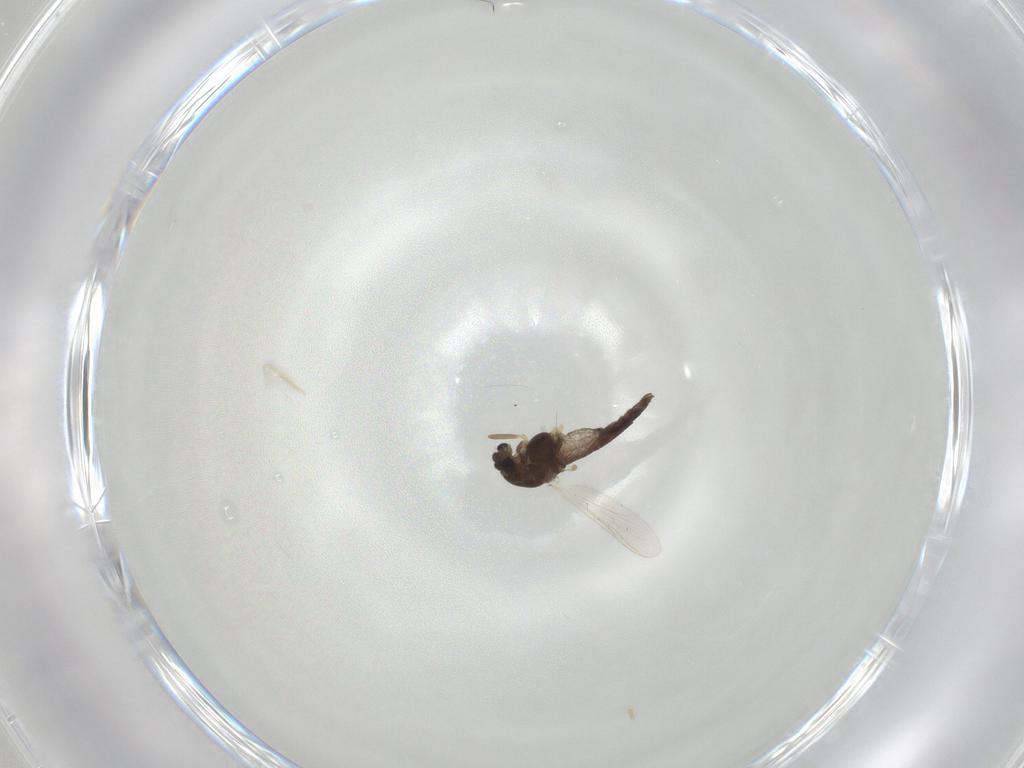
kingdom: Animalia
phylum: Arthropoda
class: Insecta
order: Diptera
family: Chironomidae
